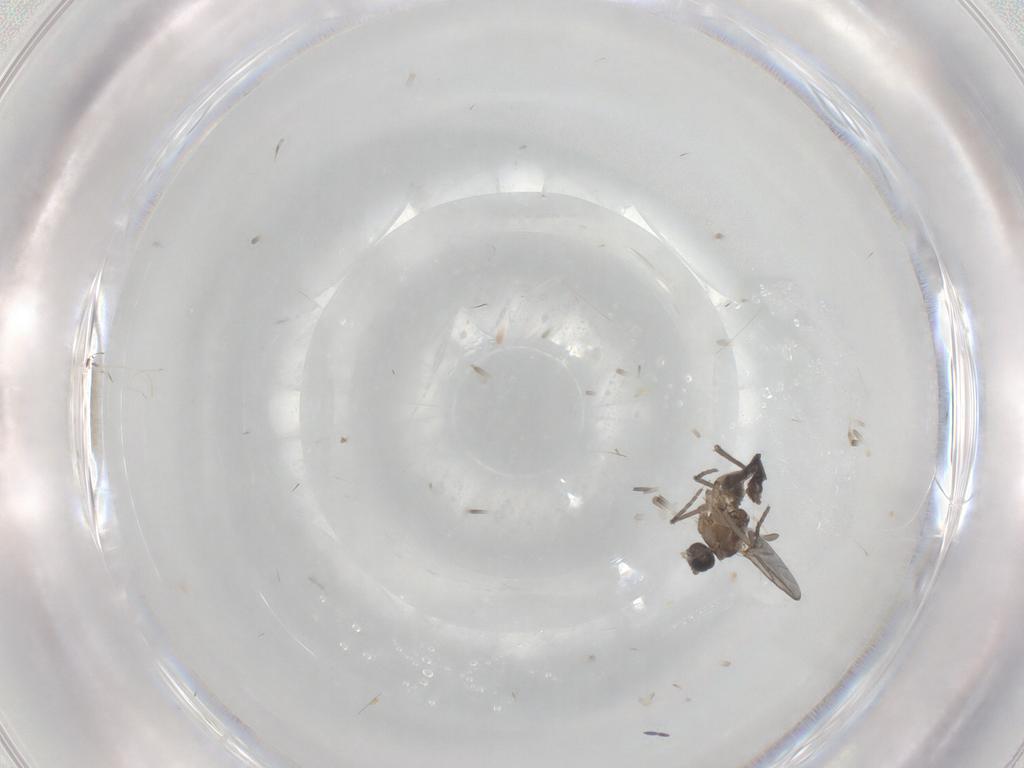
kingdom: Animalia
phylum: Arthropoda
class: Insecta
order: Diptera
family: Sciaridae
